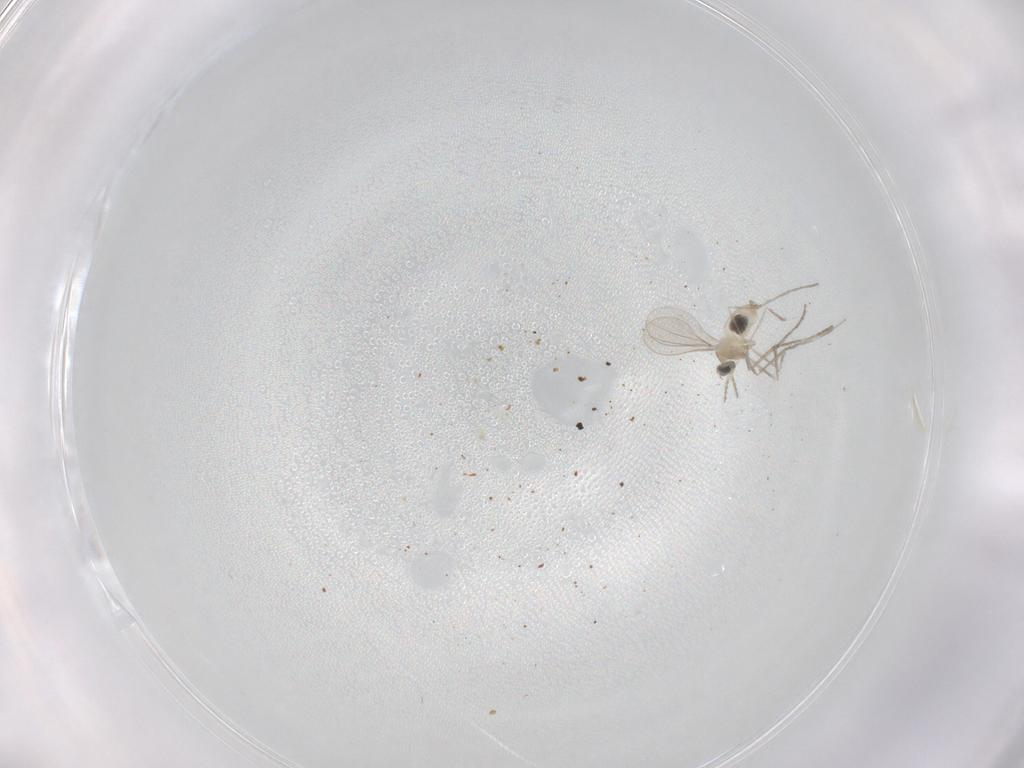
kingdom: Animalia
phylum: Arthropoda
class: Insecta
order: Diptera
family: Cecidomyiidae
